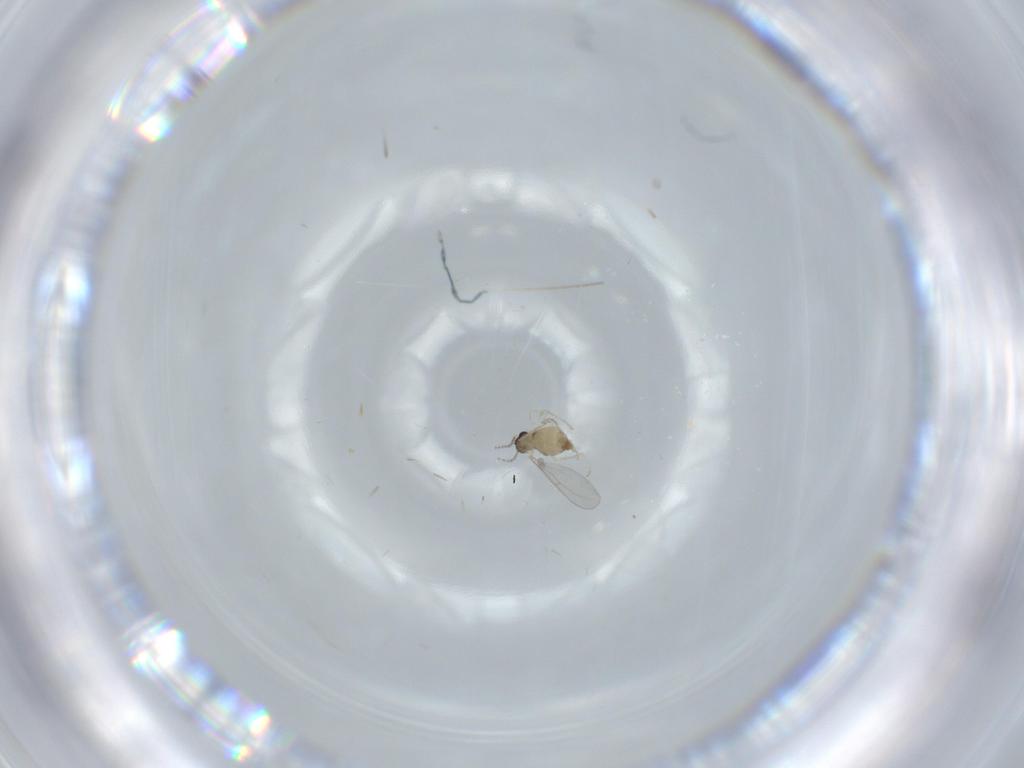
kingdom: Animalia
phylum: Arthropoda
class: Insecta
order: Diptera
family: Cecidomyiidae
